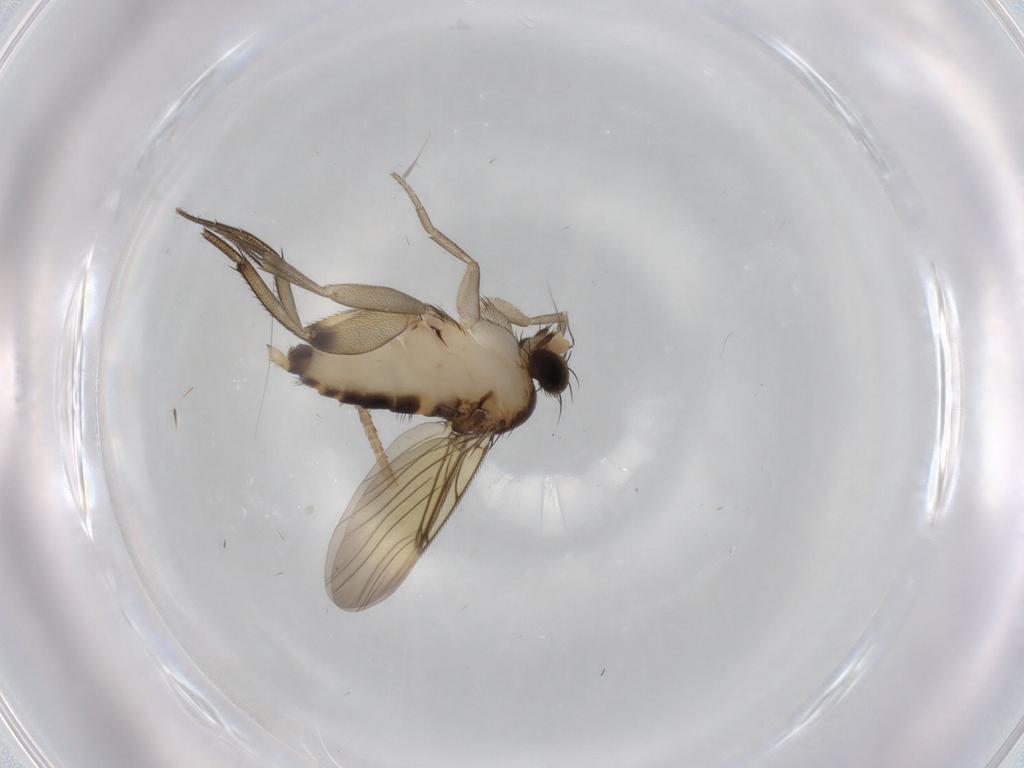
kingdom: Animalia
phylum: Arthropoda
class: Insecta
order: Diptera
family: Phoridae
